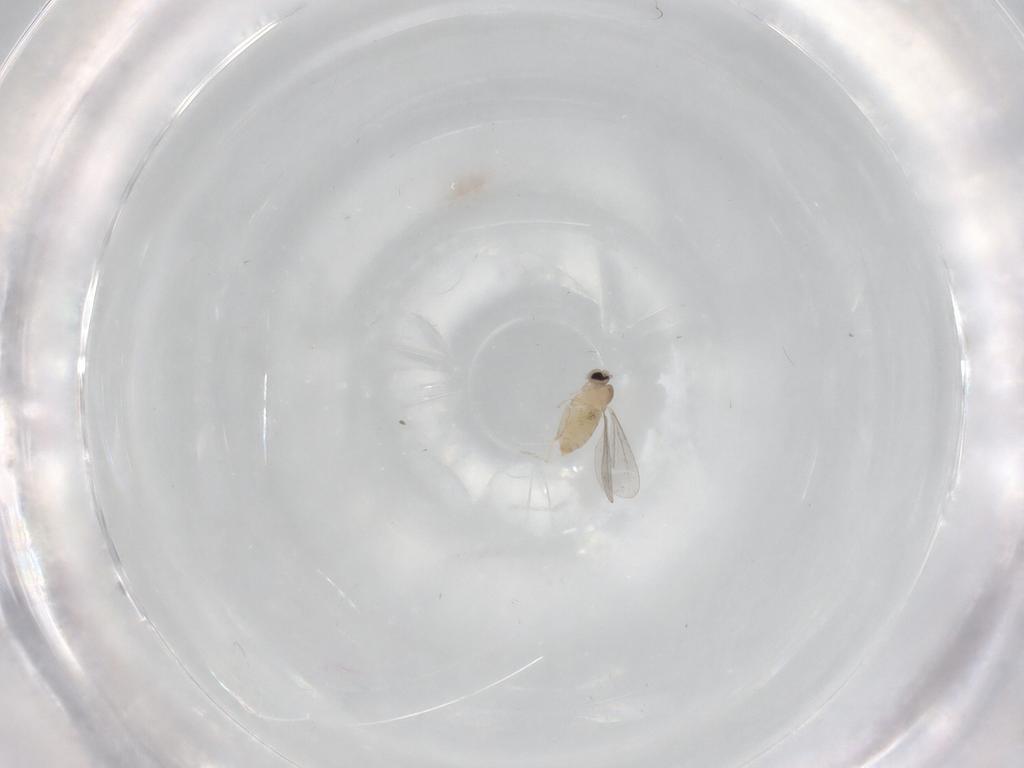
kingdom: Animalia
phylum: Arthropoda
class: Insecta
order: Diptera
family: Cecidomyiidae
